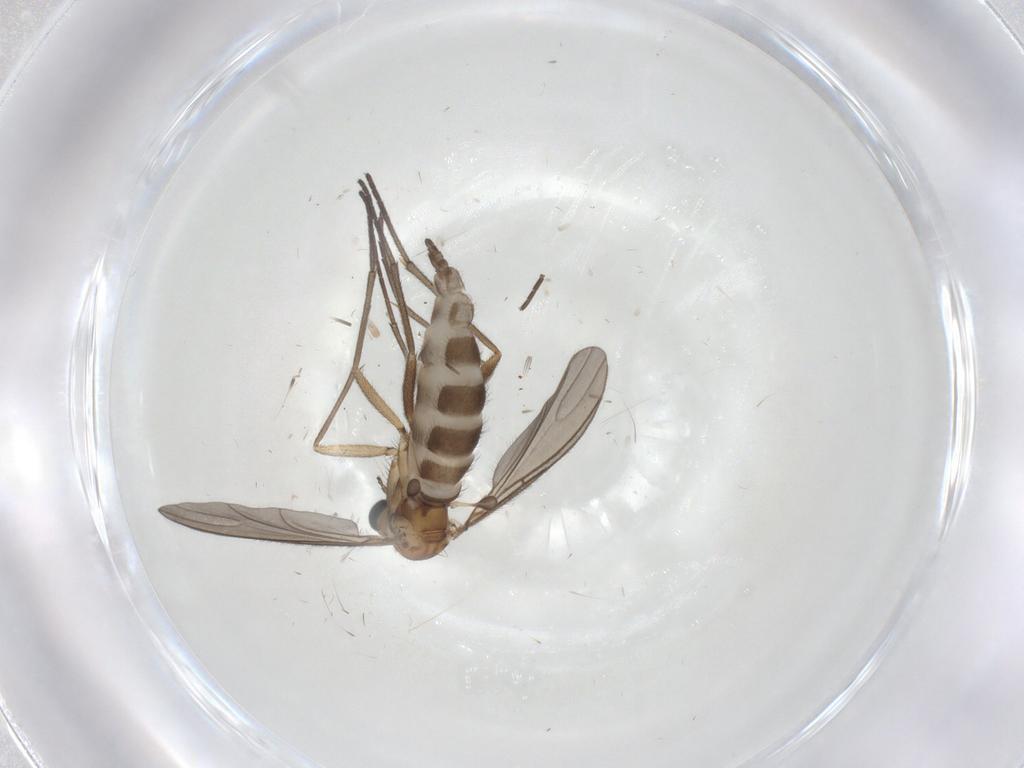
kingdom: Animalia
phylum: Arthropoda
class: Insecta
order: Diptera
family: Sciaridae
